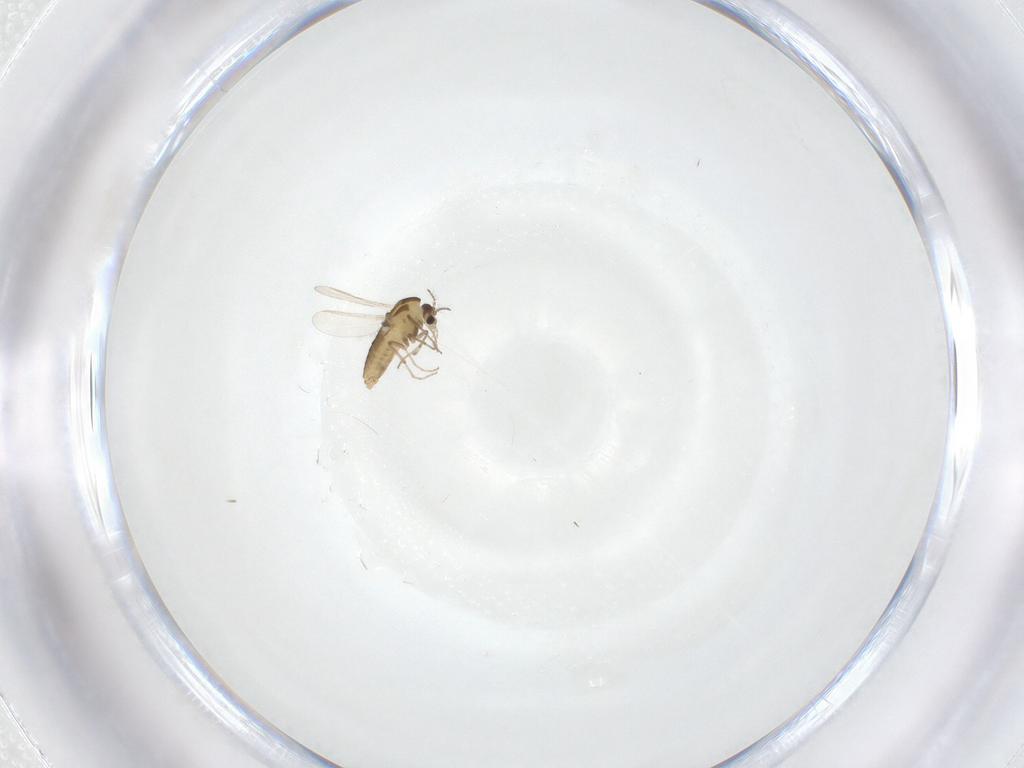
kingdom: Animalia
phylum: Arthropoda
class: Insecta
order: Diptera
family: Chironomidae
